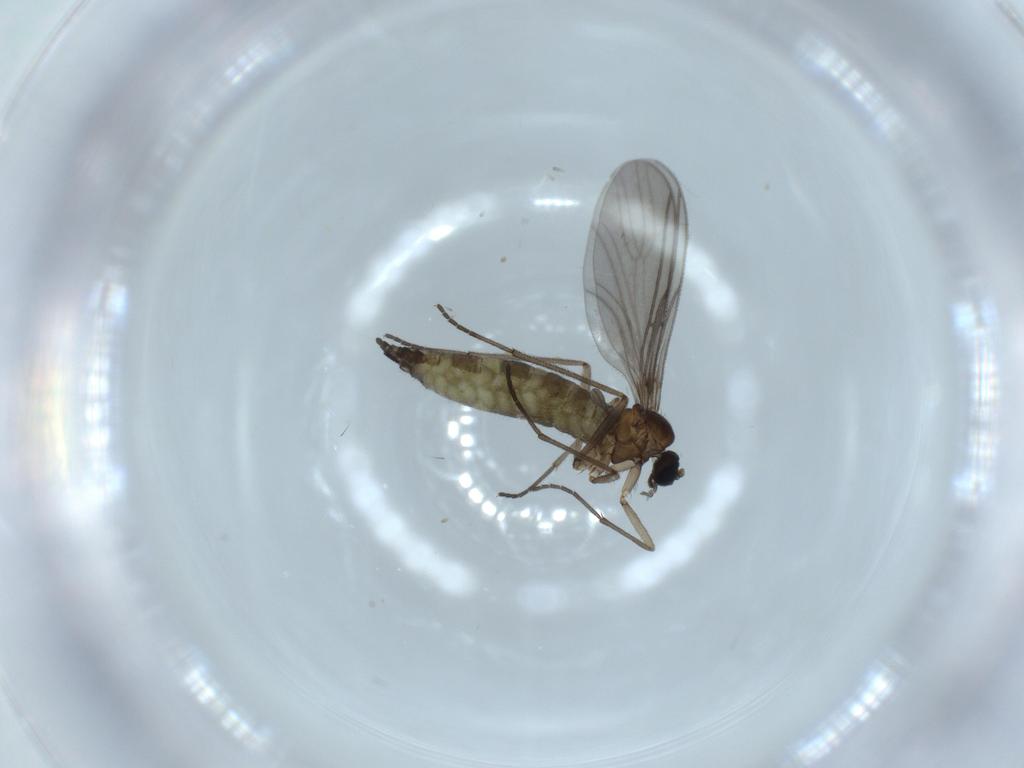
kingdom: Animalia
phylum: Arthropoda
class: Insecta
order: Diptera
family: Sciaridae
